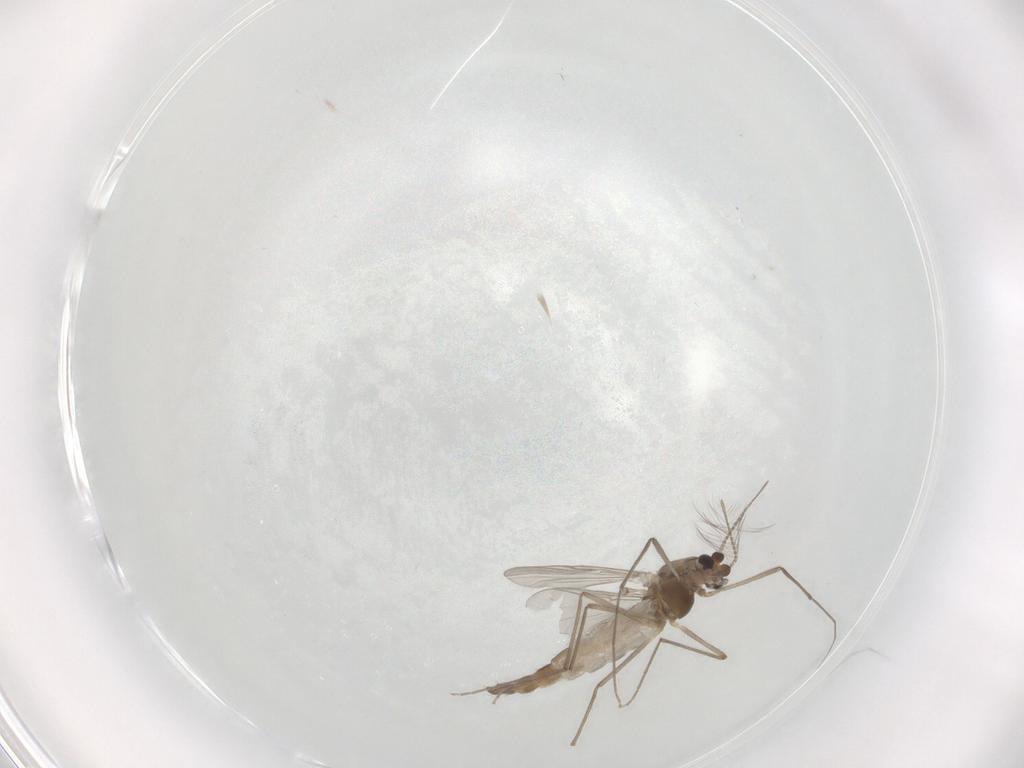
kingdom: Animalia
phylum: Arthropoda
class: Insecta
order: Diptera
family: Chironomidae
